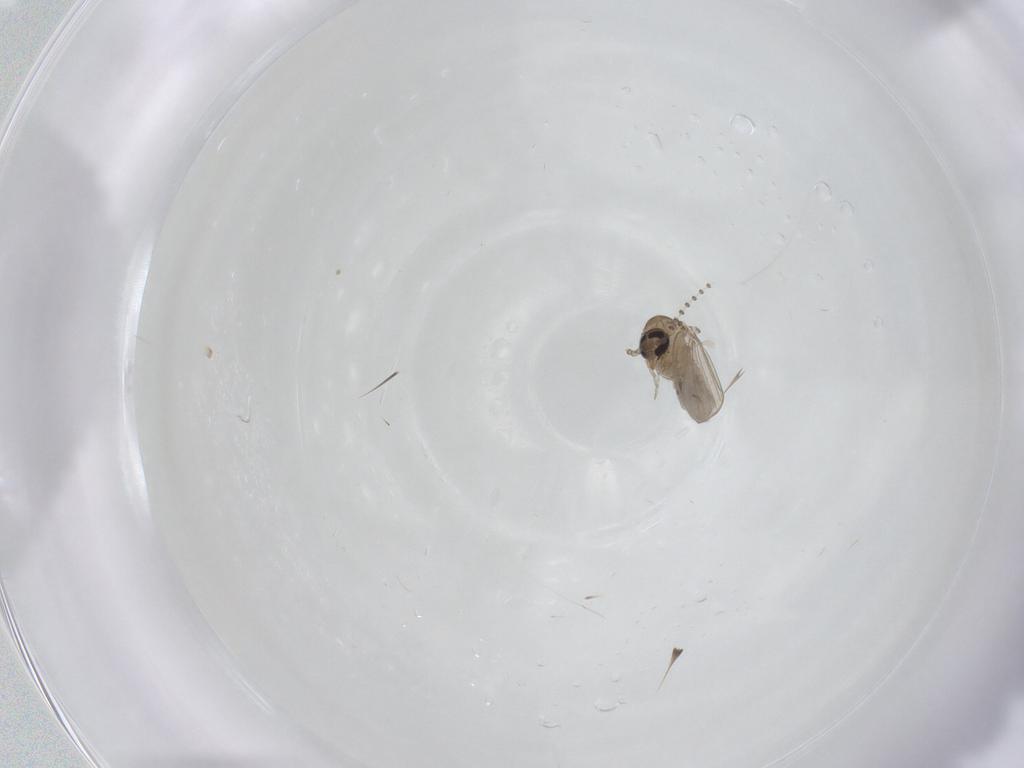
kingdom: Animalia
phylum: Arthropoda
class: Insecta
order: Diptera
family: Psychodidae
